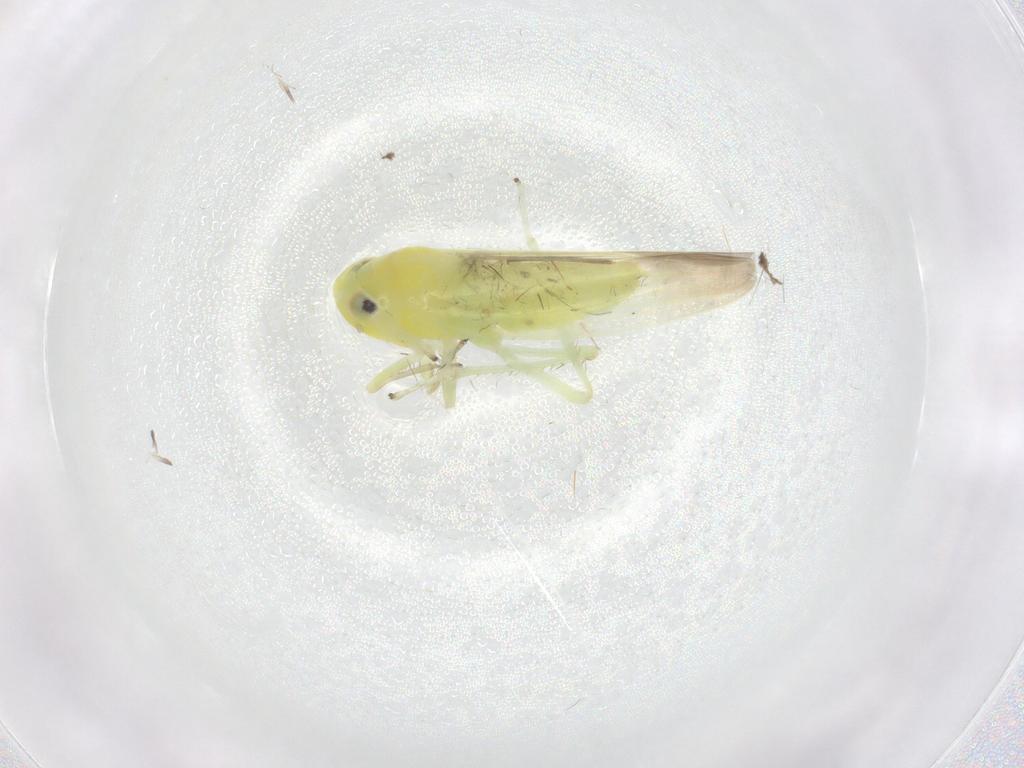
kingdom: Animalia
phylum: Arthropoda
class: Insecta
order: Hemiptera
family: Cicadellidae
